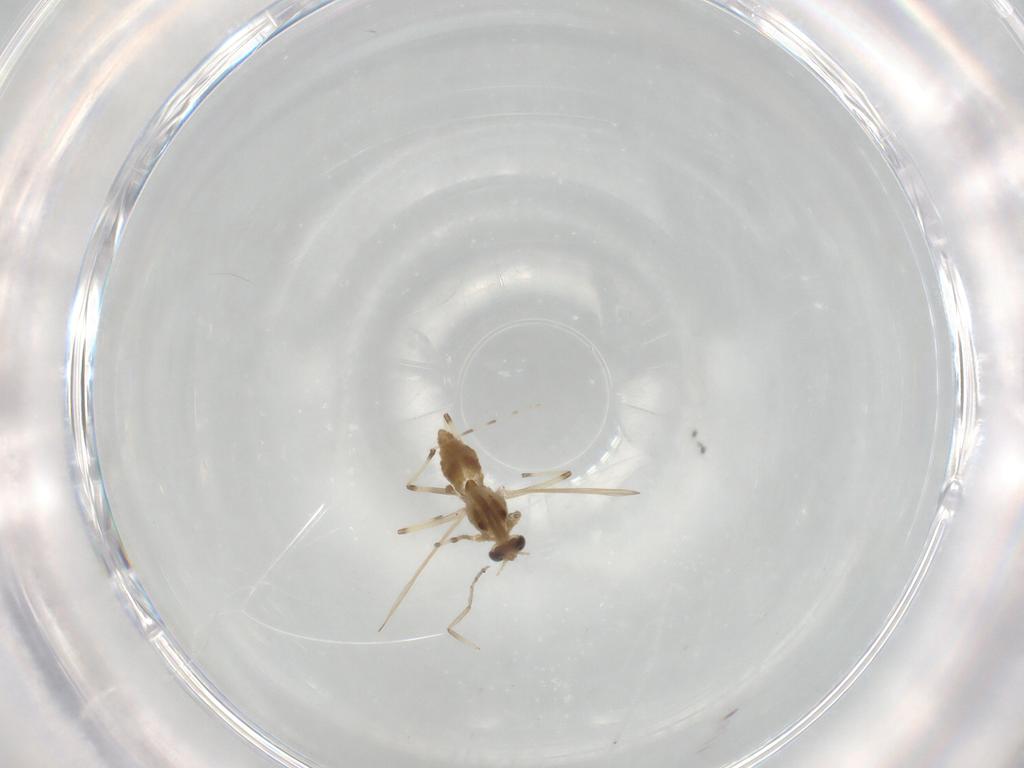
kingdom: Animalia
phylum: Arthropoda
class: Insecta
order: Diptera
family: Ceratopogonidae
